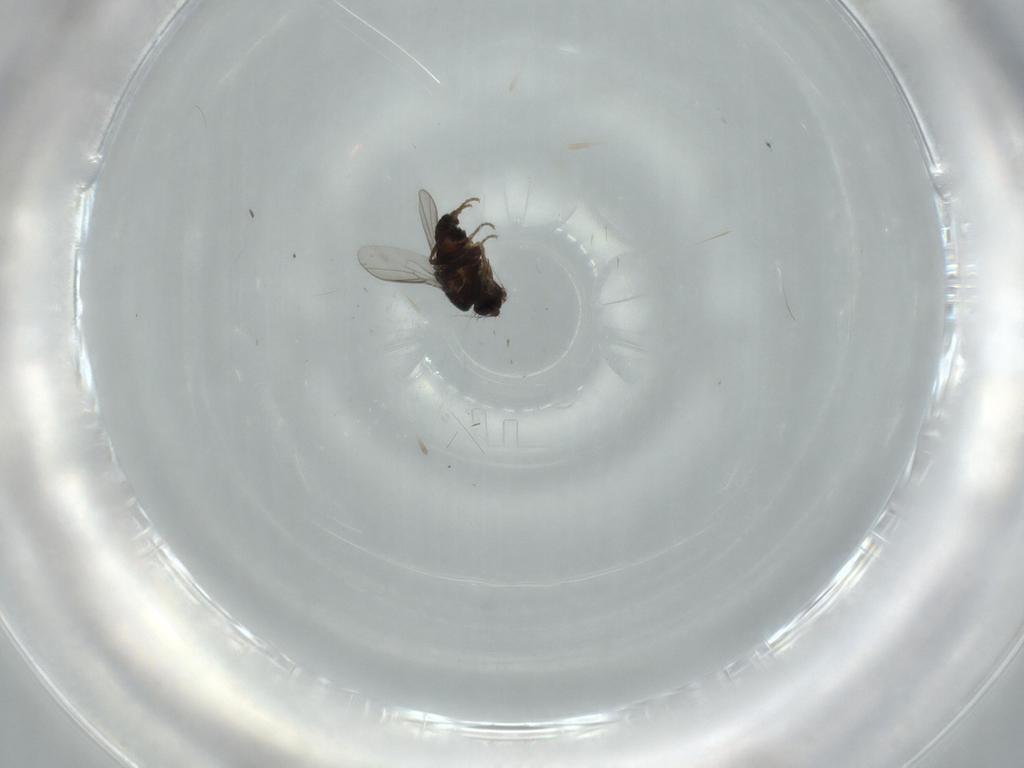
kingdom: Animalia
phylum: Arthropoda
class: Insecta
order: Diptera
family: Sphaeroceridae
